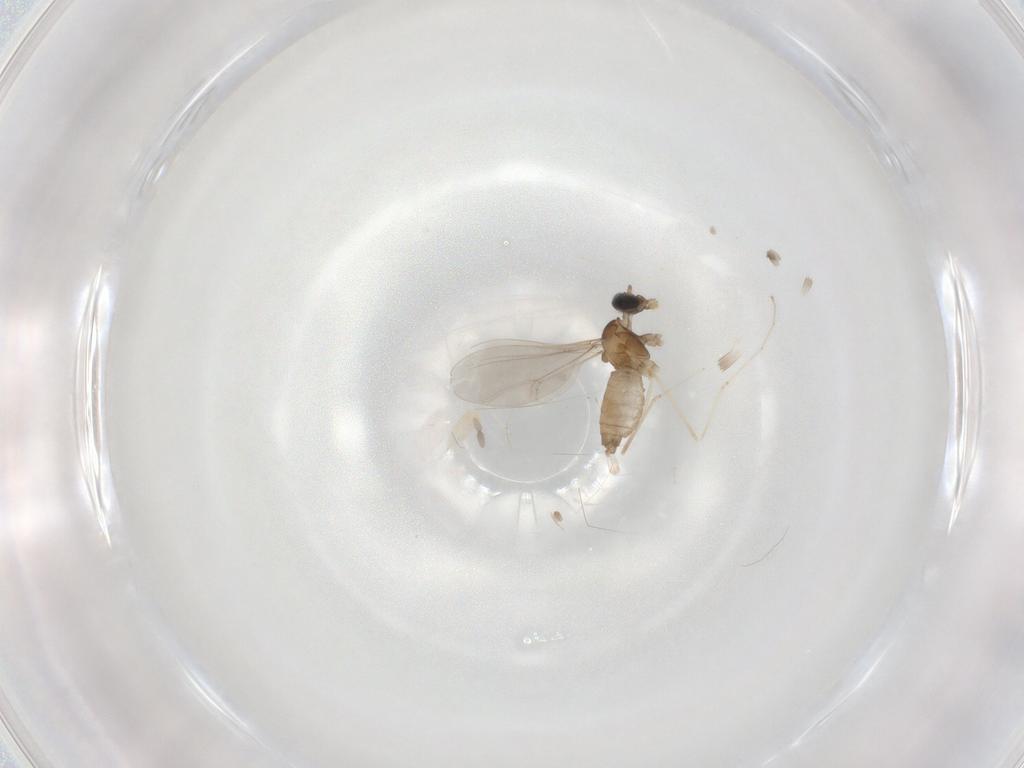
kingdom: Animalia
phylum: Arthropoda
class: Insecta
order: Diptera
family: Cecidomyiidae
